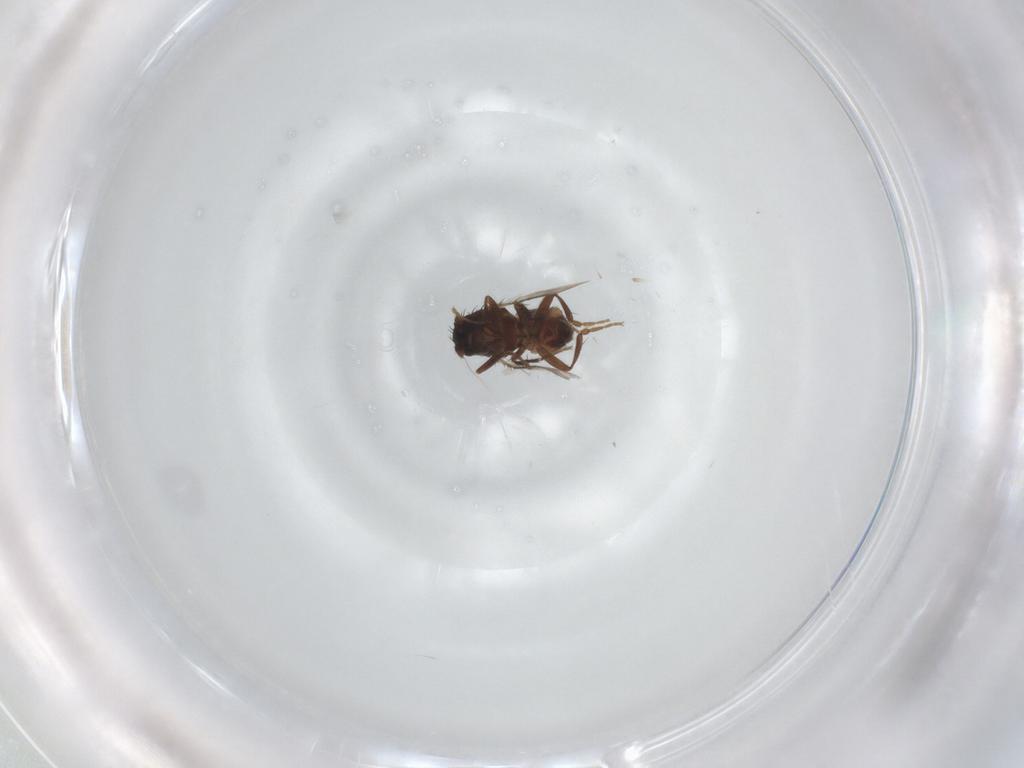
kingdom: Animalia
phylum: Arthropoda
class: Insecta
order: Diptera
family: Sphaeroceridae
